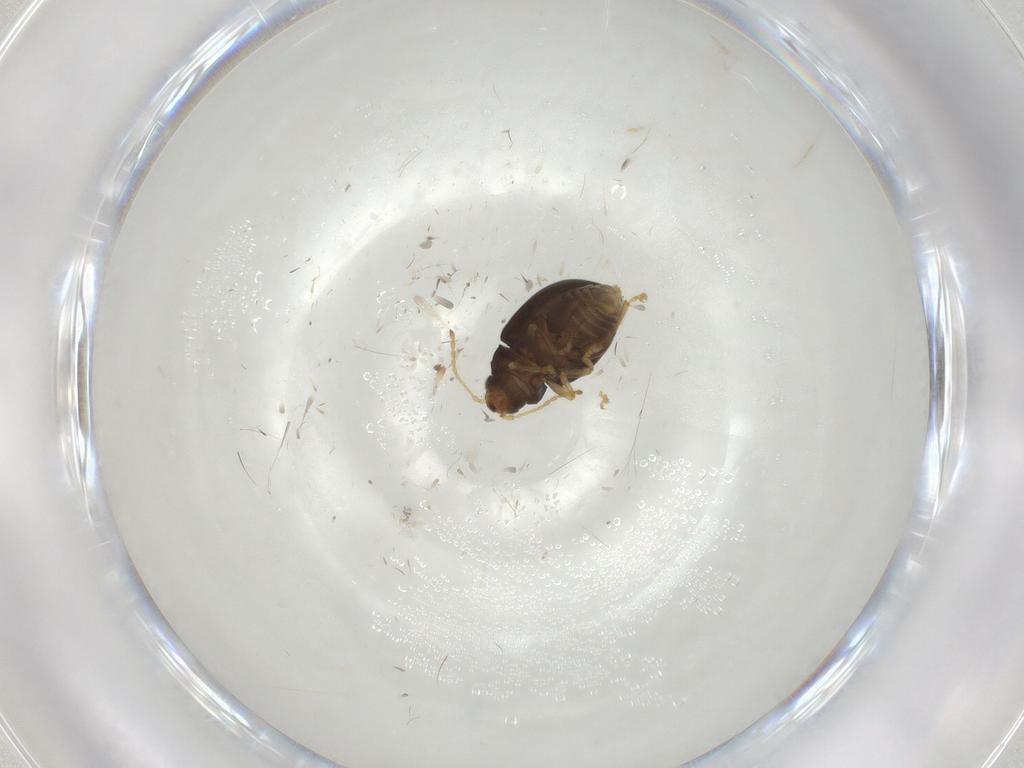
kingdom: Animalia
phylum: Arthropoda
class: Insecta
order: Coleoptera
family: Chrysomelidae
